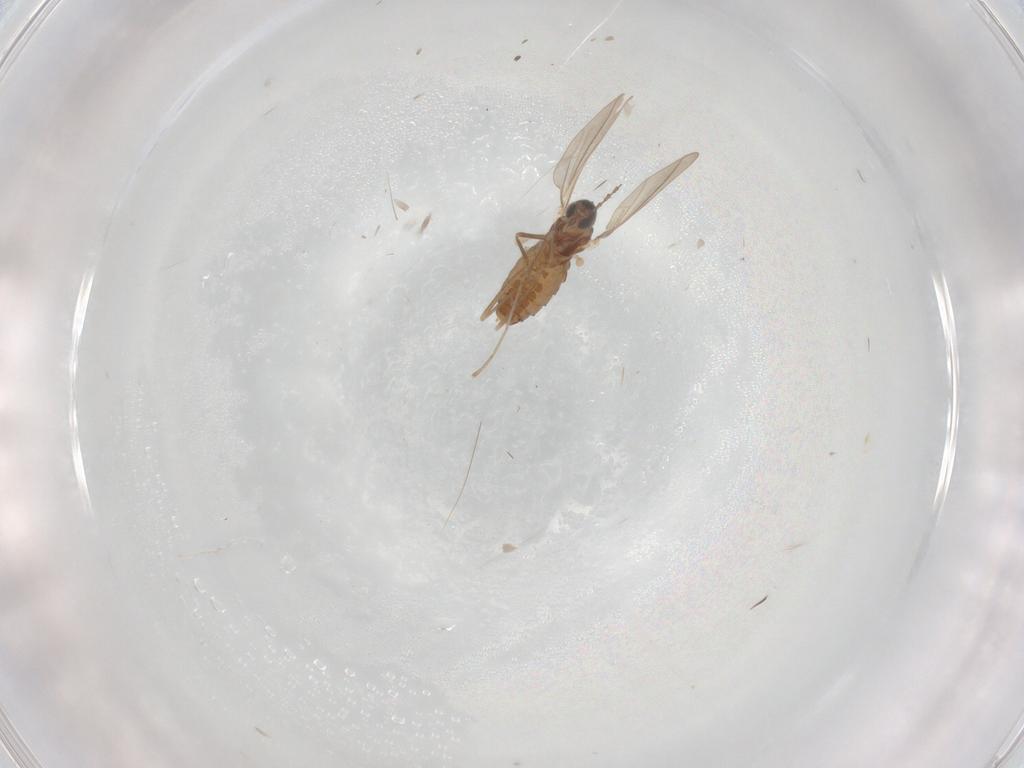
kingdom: Animalia
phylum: Arthropoda
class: Insecta
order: Diptera
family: Cecidomyiidae
